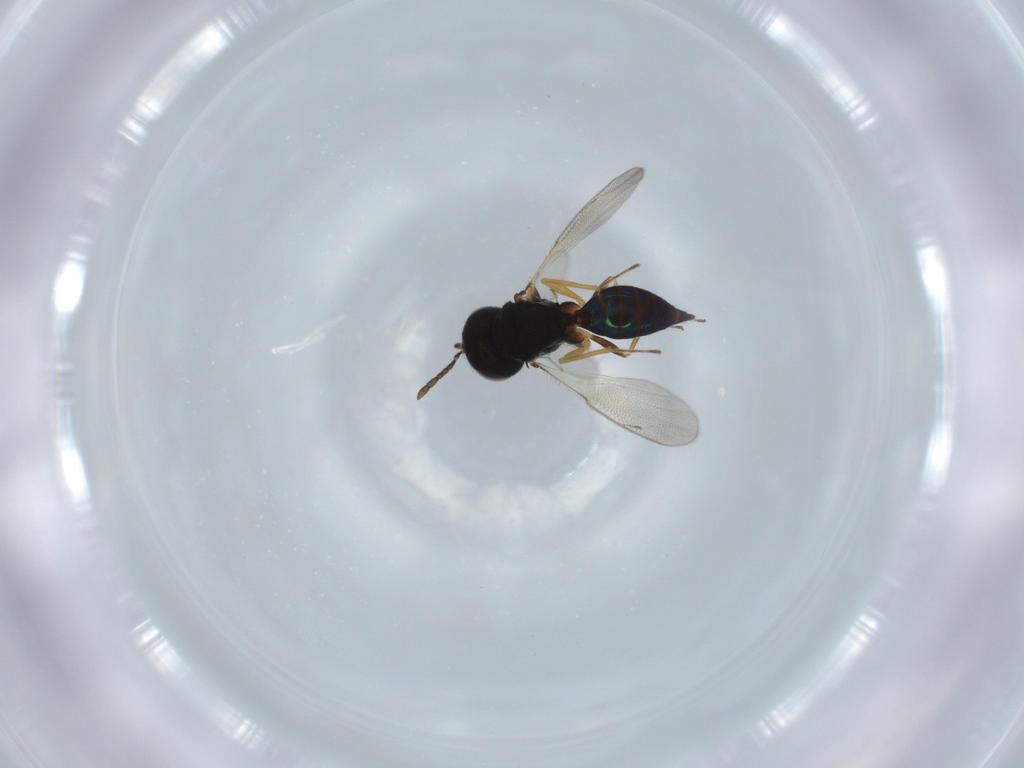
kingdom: Animalia
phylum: Arthropoda
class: Insecta
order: Hymenoptera
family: Pteromalidae
